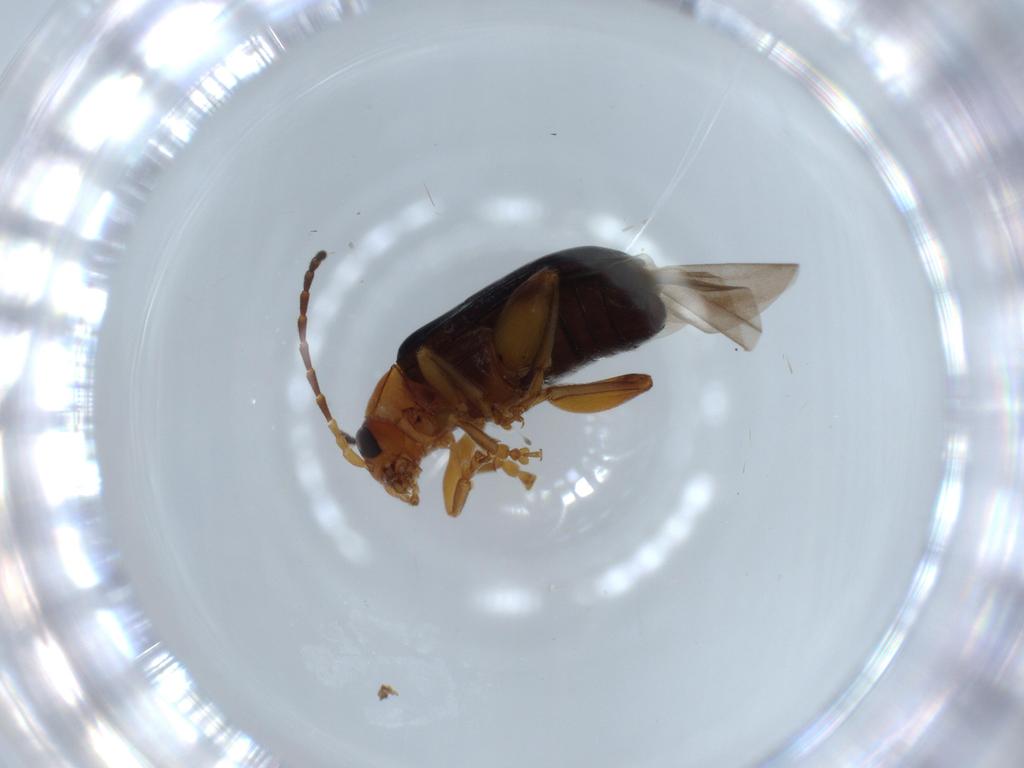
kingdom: Animalia
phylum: Arthropoda
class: Insecta
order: Coleoptera
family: Chrysomelidae
